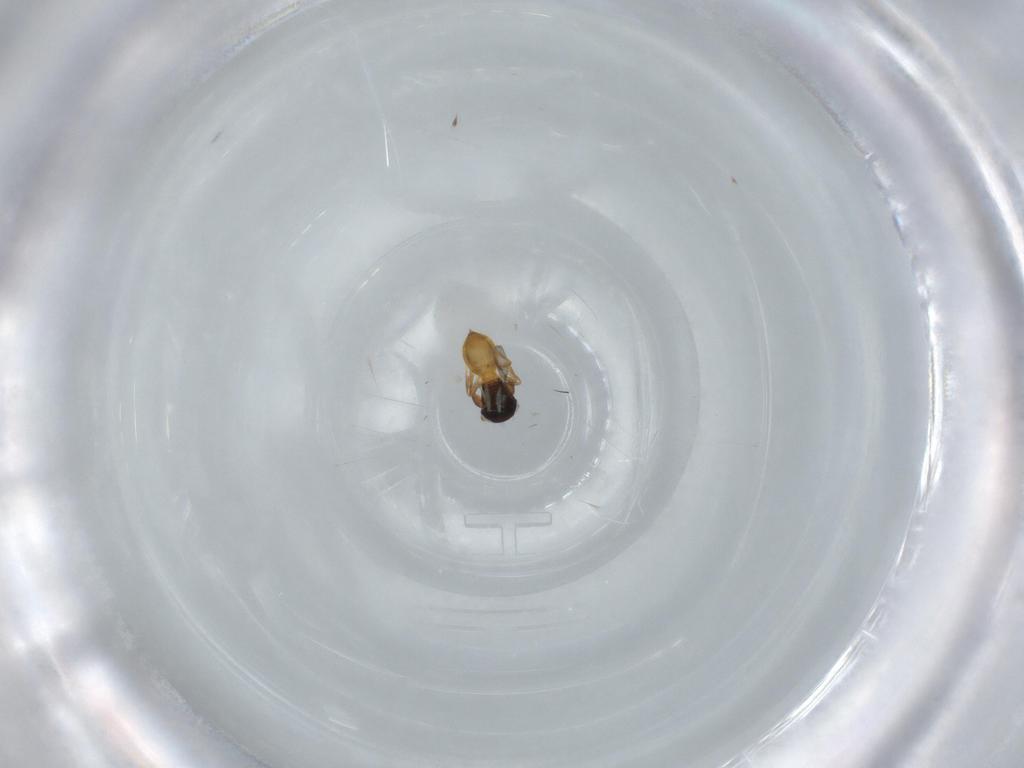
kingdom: Animalia
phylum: Arthropoda
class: Insecta
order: Hymenoptera
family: Scelionidae
